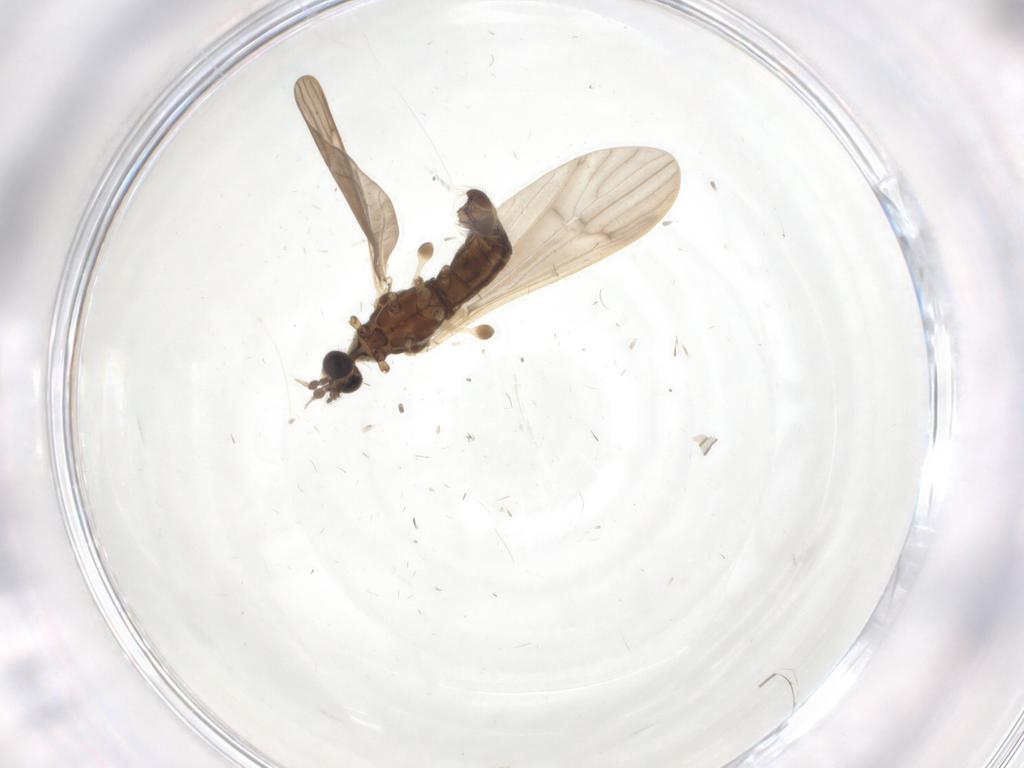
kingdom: Animalia
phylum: Arthropoda
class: Insecta
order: Diptera
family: Limoniidae
